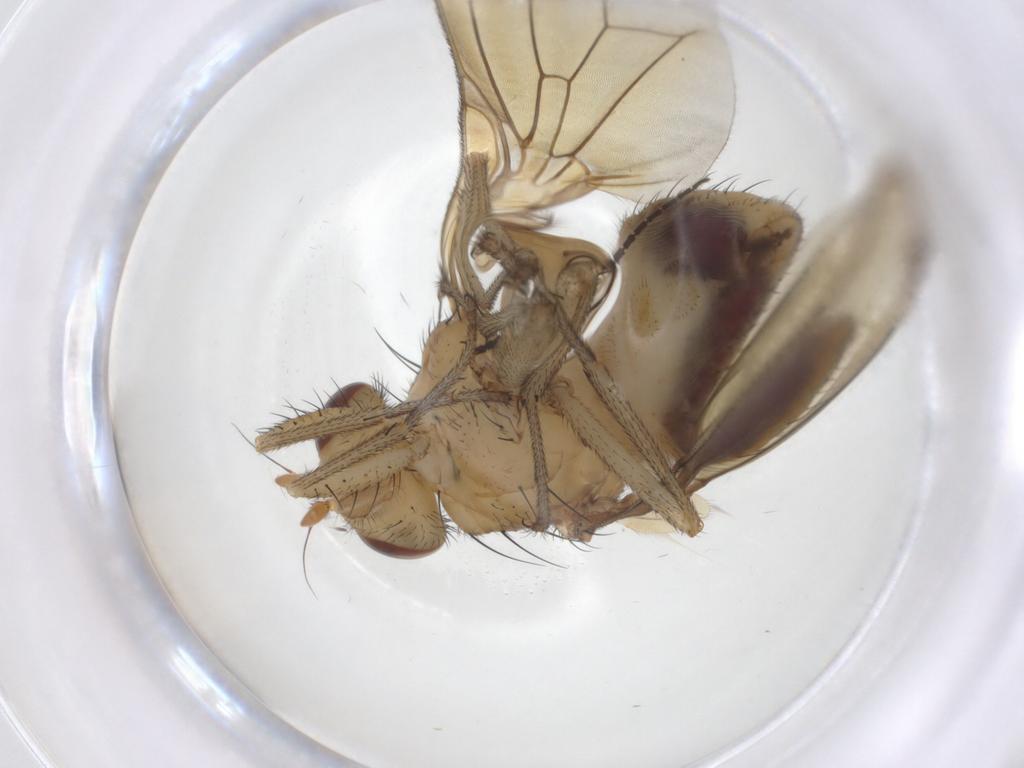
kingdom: Animalia
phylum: Arthropoda
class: Insecta
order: Diptera
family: Sciaridae
